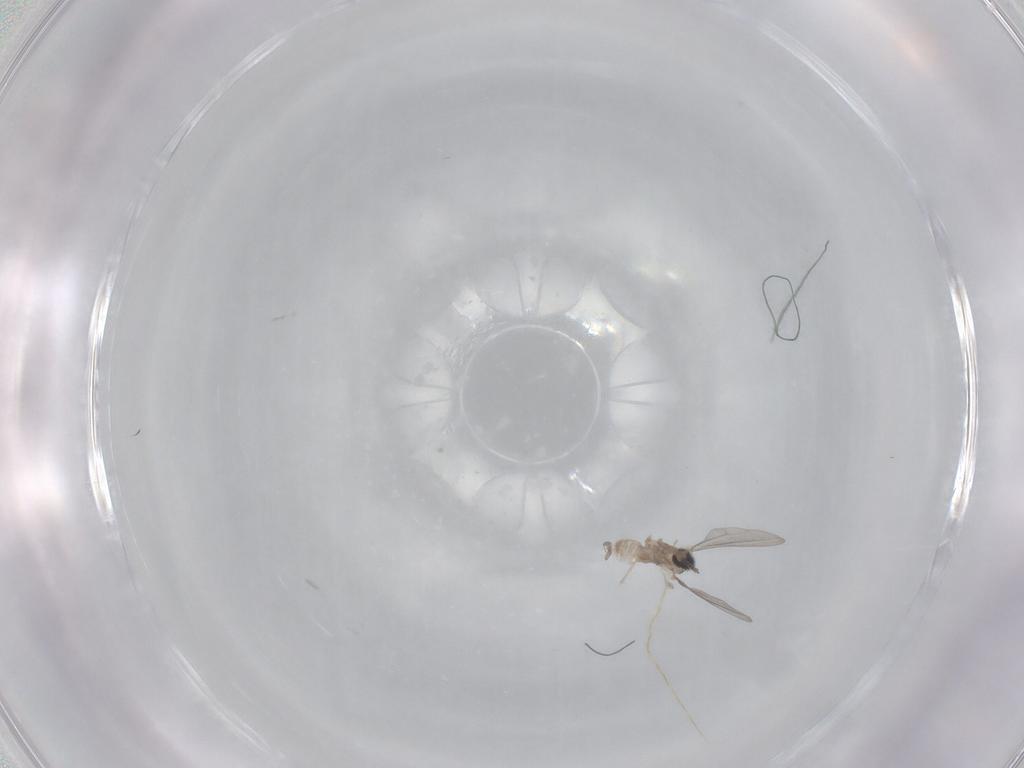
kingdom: Animalia
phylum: Arthropoda
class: Insecta
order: Diptera
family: Cecidomyiidae
